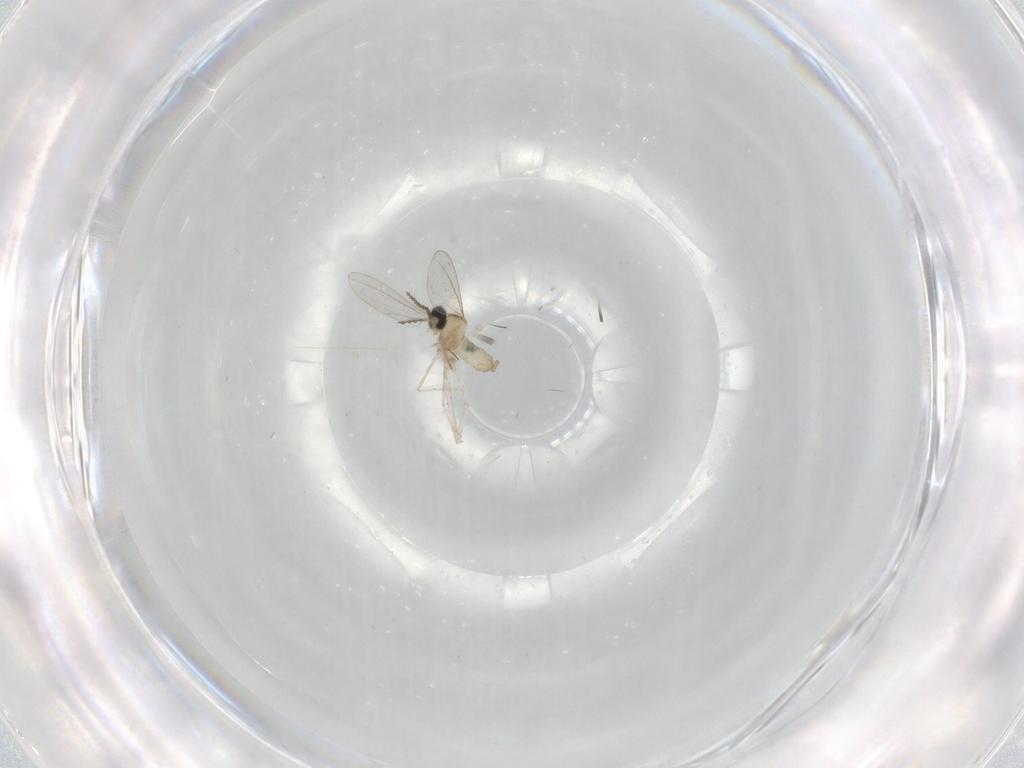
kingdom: Animalia
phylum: Arthropoda
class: Insecta
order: Diptera
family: Cecidomyiidae
